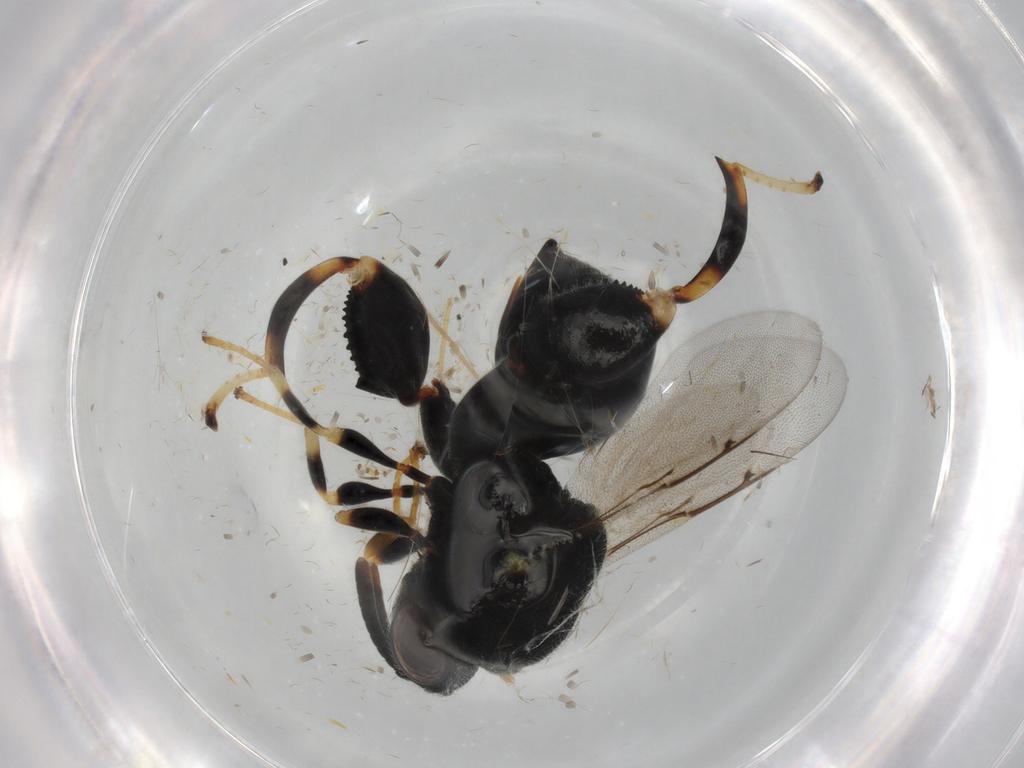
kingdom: Animalia
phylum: Arthropoda
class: Insecta
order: Hymenoptera
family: Chalcididae
